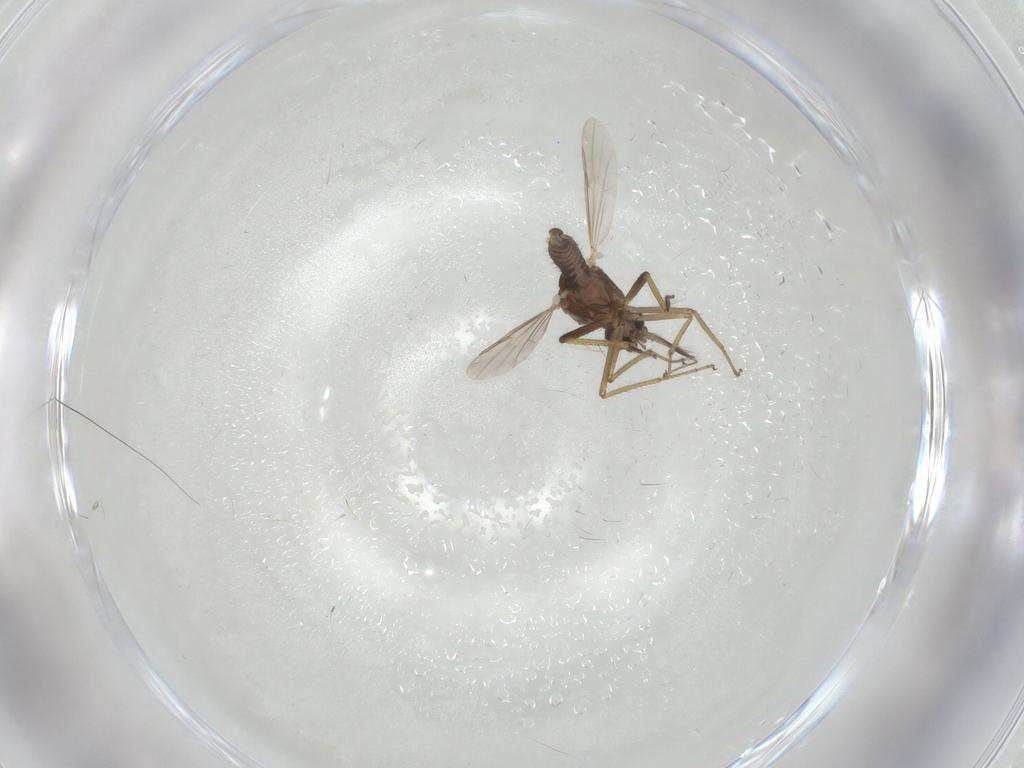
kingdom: Animalia
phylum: Arthropoda
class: Insecta
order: Diptera
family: Ceratopogonidae
